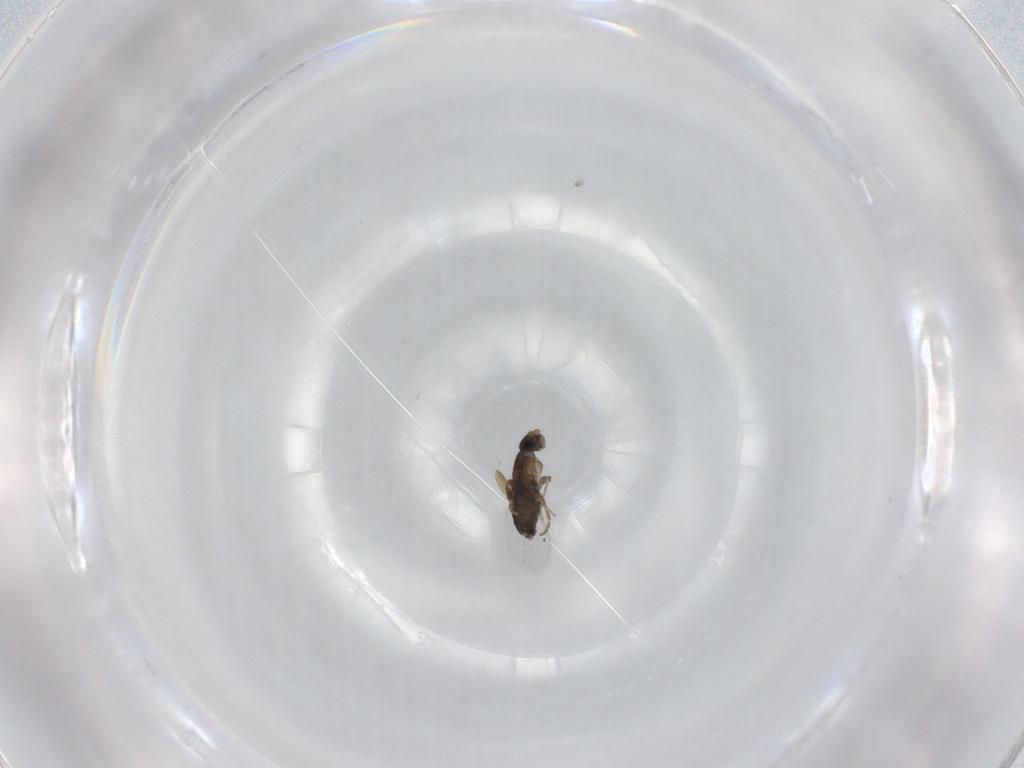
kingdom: Animalia
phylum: Arthropoda
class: Insecta
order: Diptera
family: Phoridae
